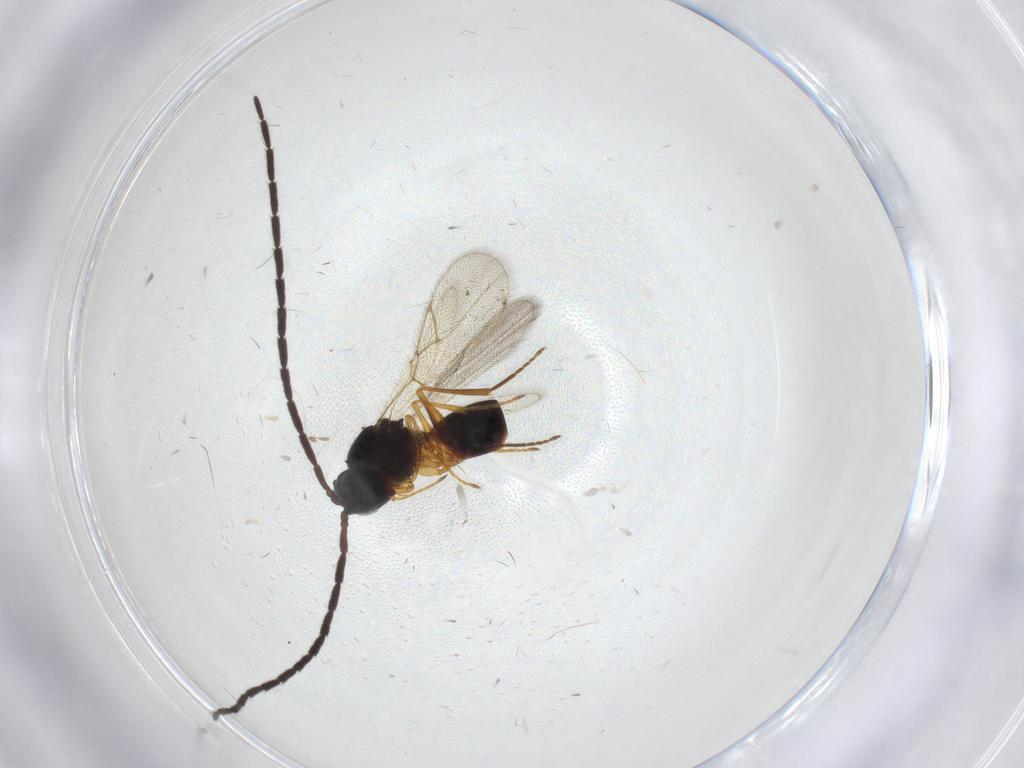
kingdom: Animalia
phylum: Arthropoda
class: Insecta
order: Hymenoptera
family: Figitidae
